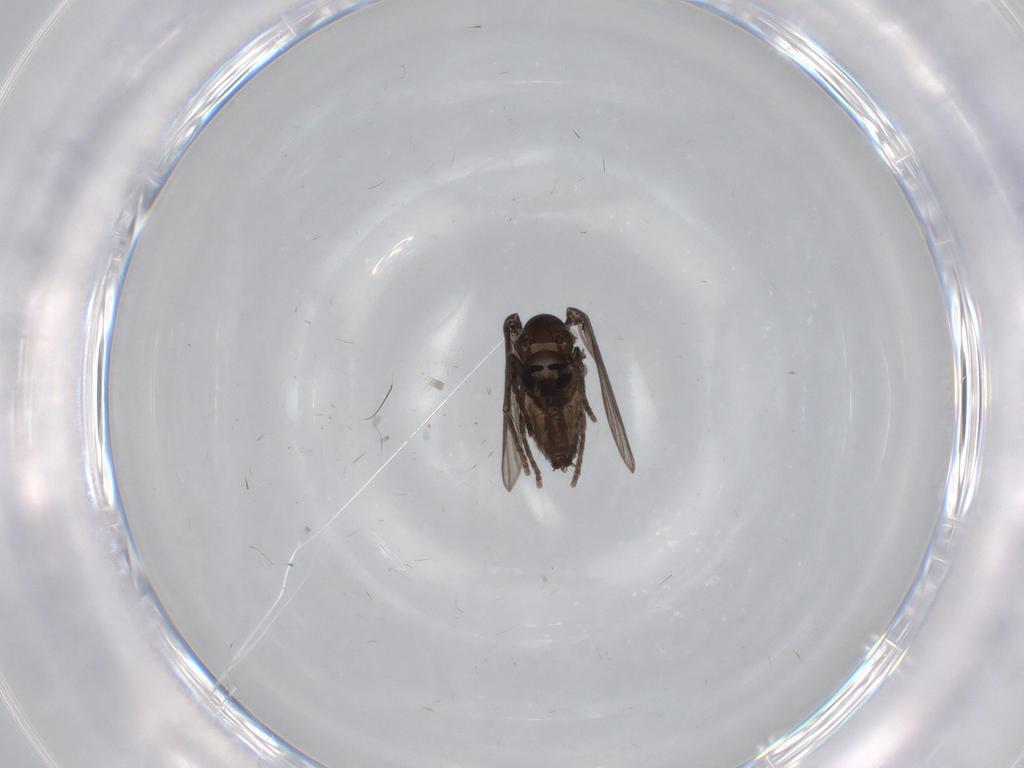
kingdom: Animalia
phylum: Arthropoda
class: Insecta
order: Diptera
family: Psychodidae
